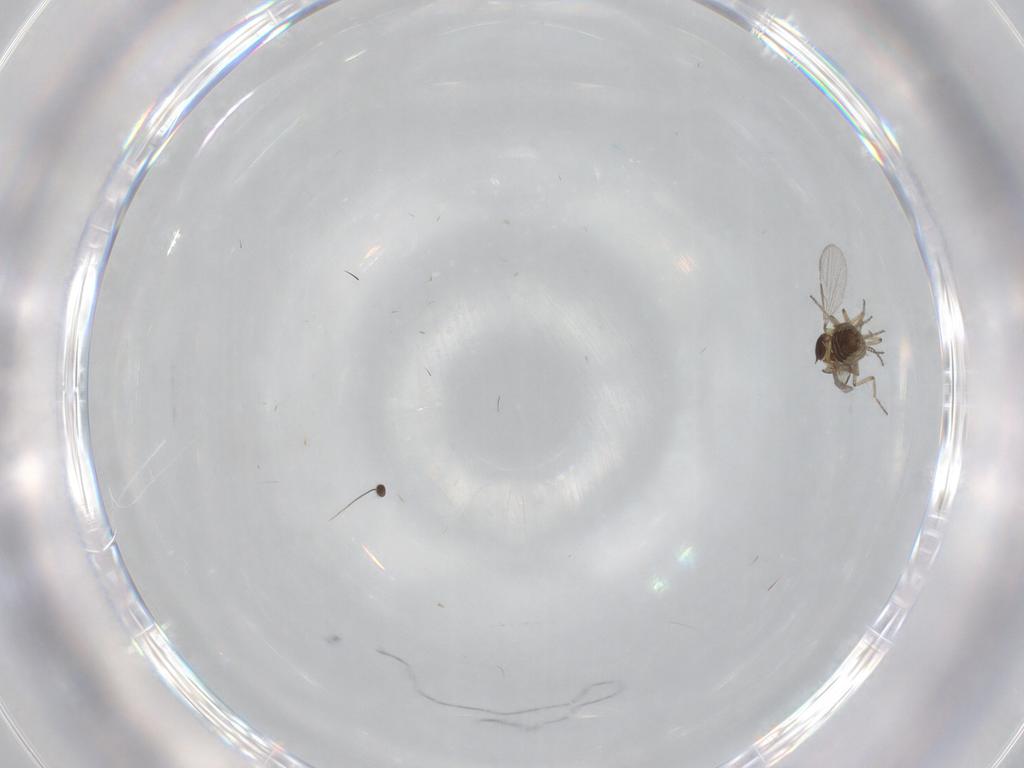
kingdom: Animalia
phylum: Arthropoda
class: Insecta
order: Diptera
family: Ceratopogonidae
